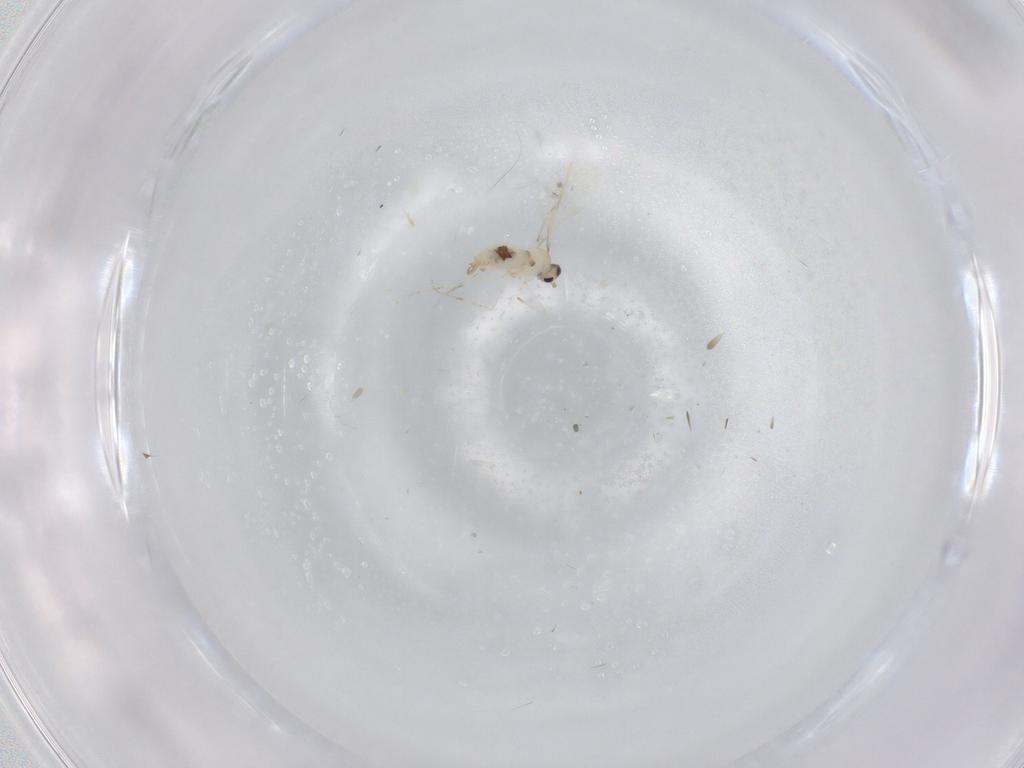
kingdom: Animalia
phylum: Arthropoda
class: Insecta
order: Diptera
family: Cecidomyiidae
